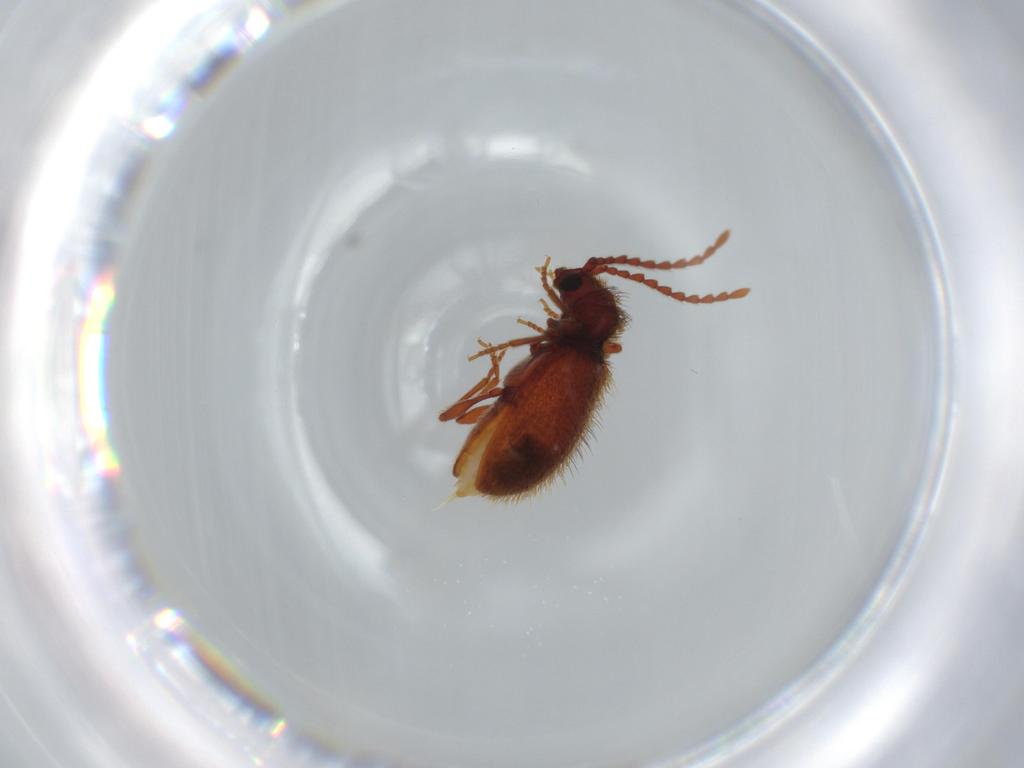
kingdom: Animalia
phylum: Arthropoda
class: Insecta
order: Coleoptera
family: Ptinidae
